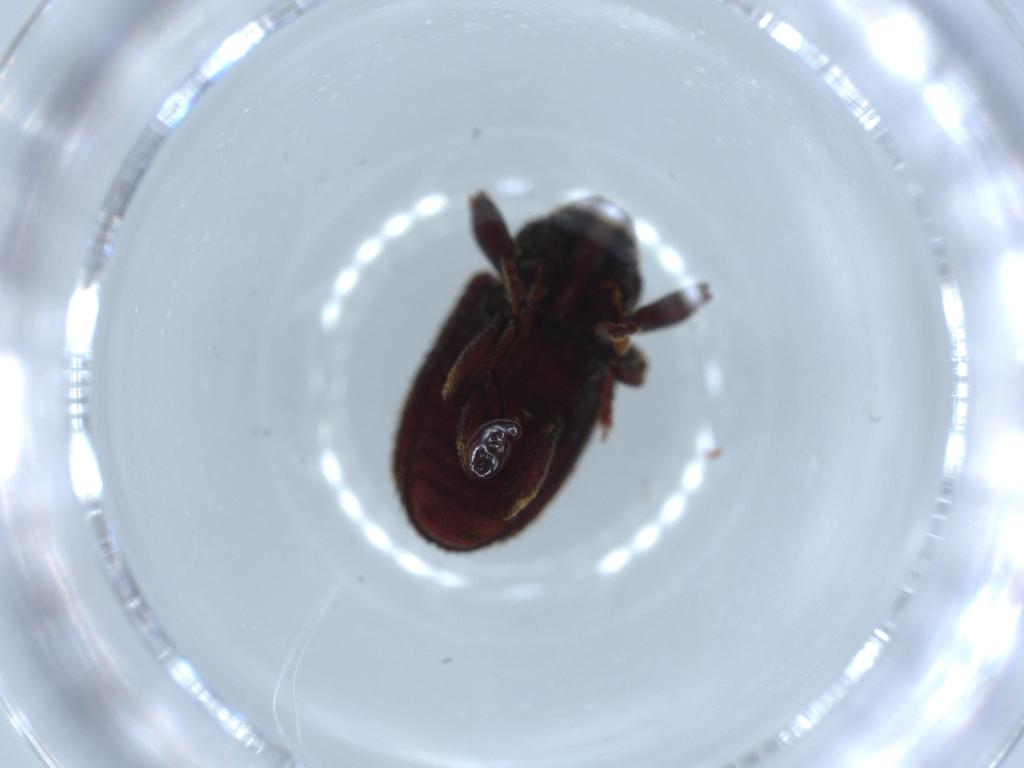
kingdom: Animalia
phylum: Arthropoda
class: Insecta
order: Coleoptera
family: Curculionidae
